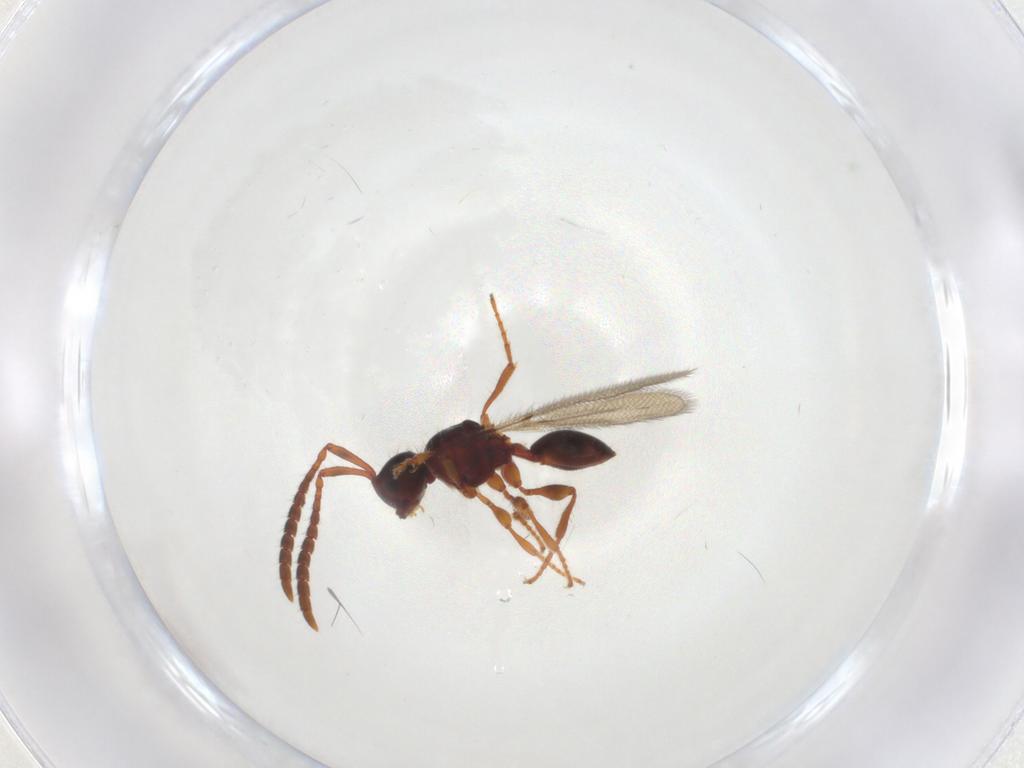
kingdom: Animalia
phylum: Arthropoda
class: Insecta
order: Hymenoptera
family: Diapriidae
